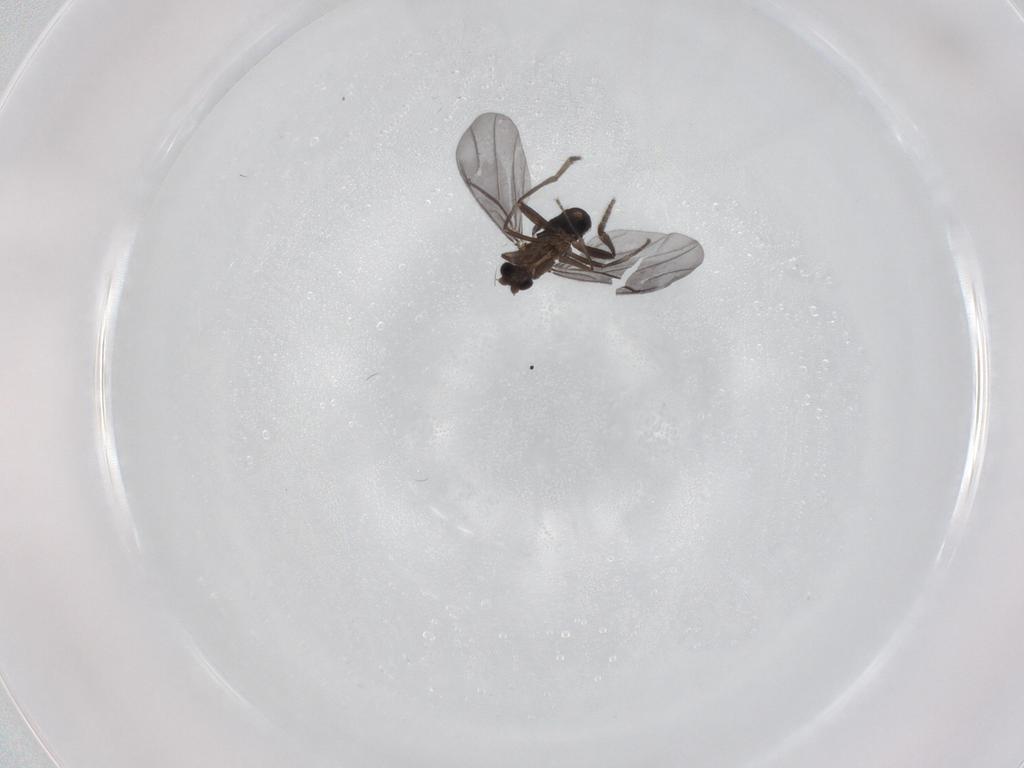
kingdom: Animalia
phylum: Arthropoda
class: Insecta
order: Diptera
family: Phoridae
